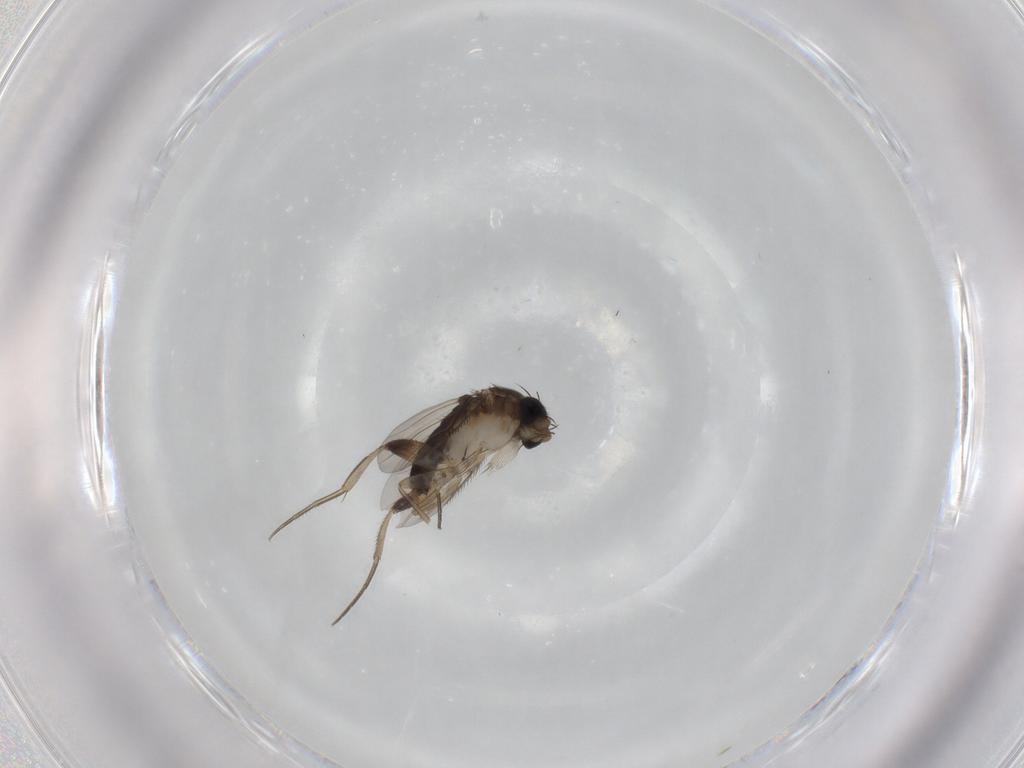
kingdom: Animalia
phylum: Arthropoda
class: Insecta
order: Diptera
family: Phoridae
